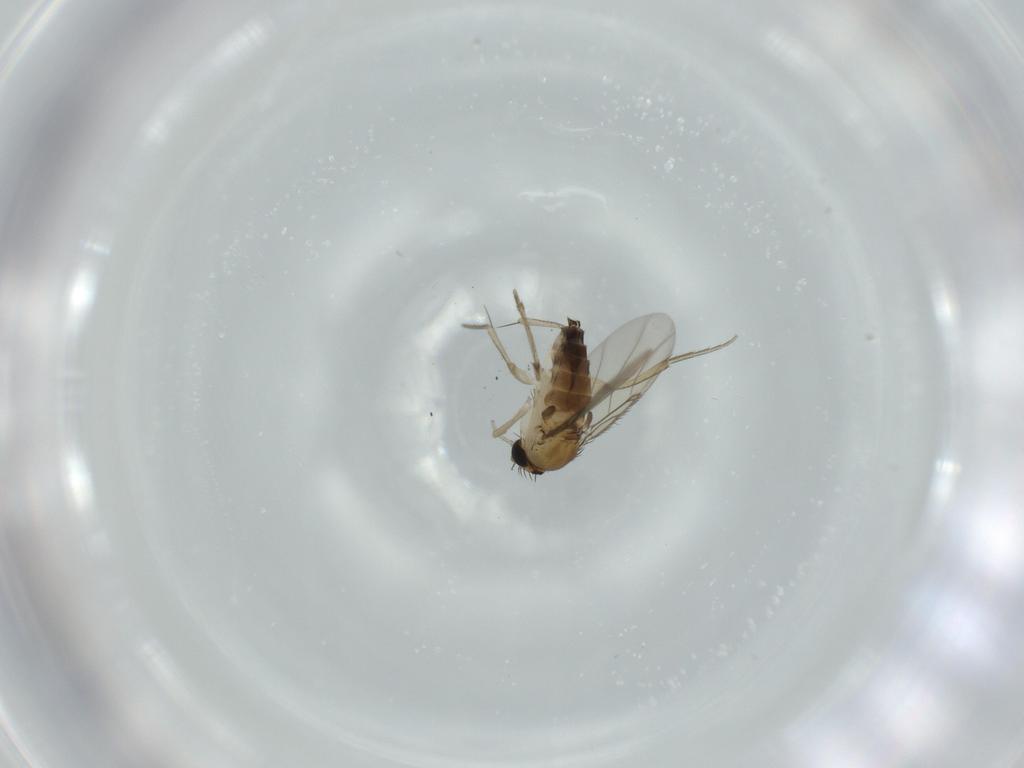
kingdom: Animalia
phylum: Arthropoda
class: Insecta
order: Diptera
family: Phoridae
